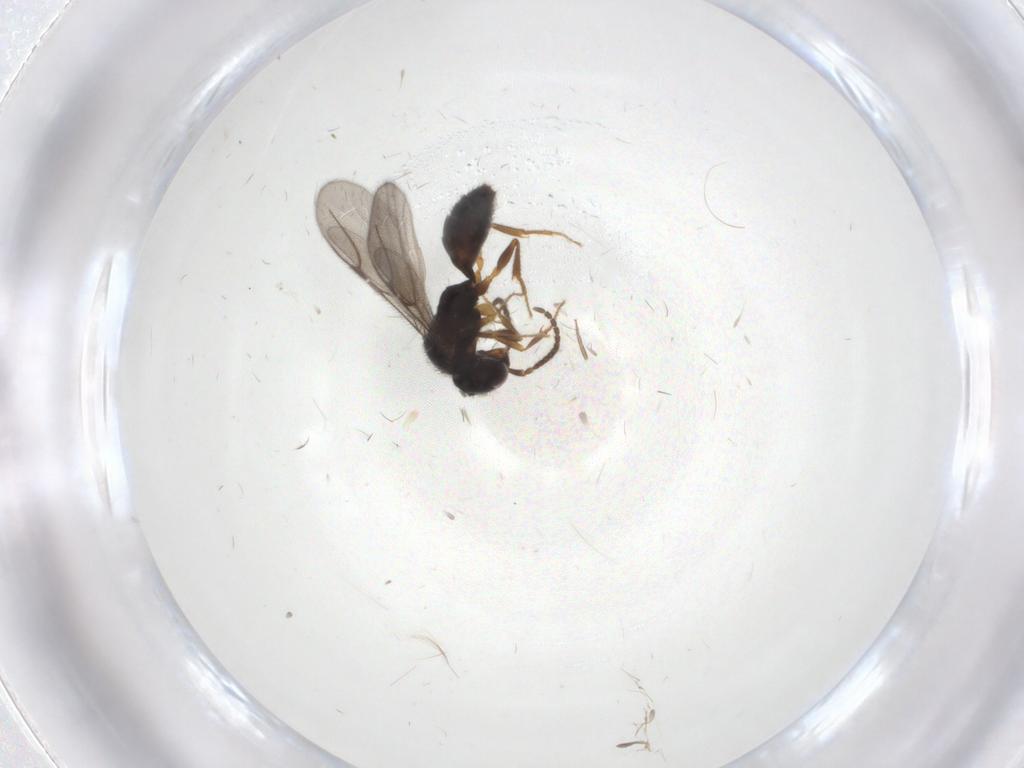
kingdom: Animalia
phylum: Arthropoda
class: Insecta
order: Hymenoptera
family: Bethylidae
